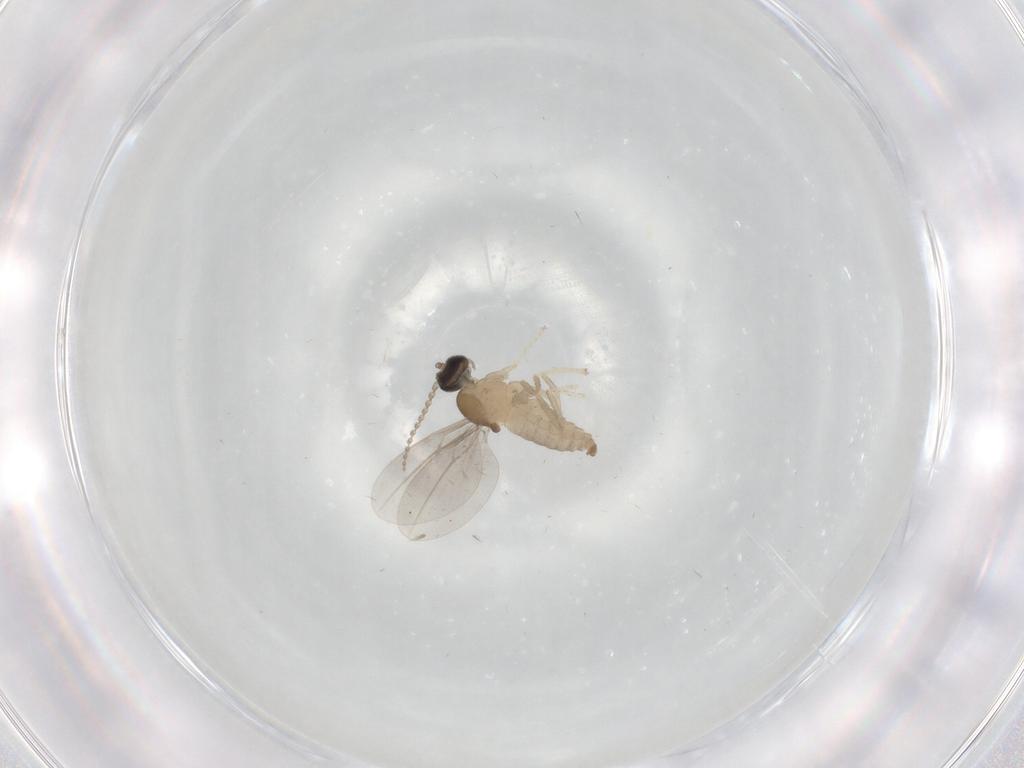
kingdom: Animalia
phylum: Arthropoda
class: Insecta
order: Diptera
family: Cecidomyiidae
